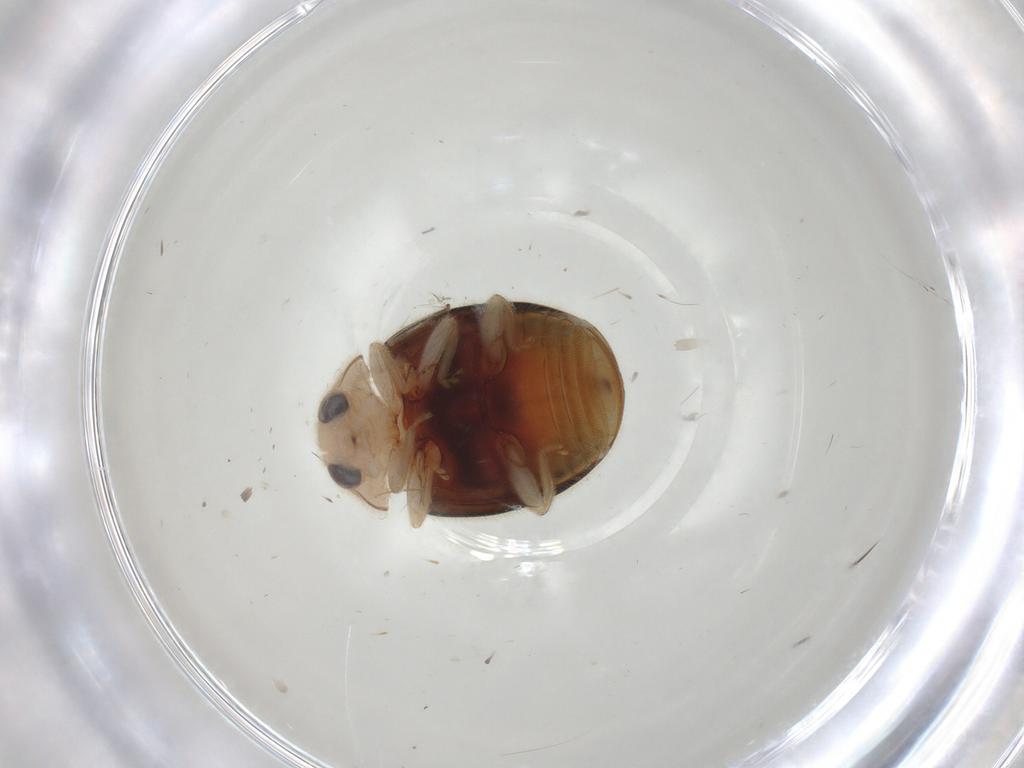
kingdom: Animalia
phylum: Arthropoda
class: Insecta
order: Coleoptera
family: Coccinellidae
